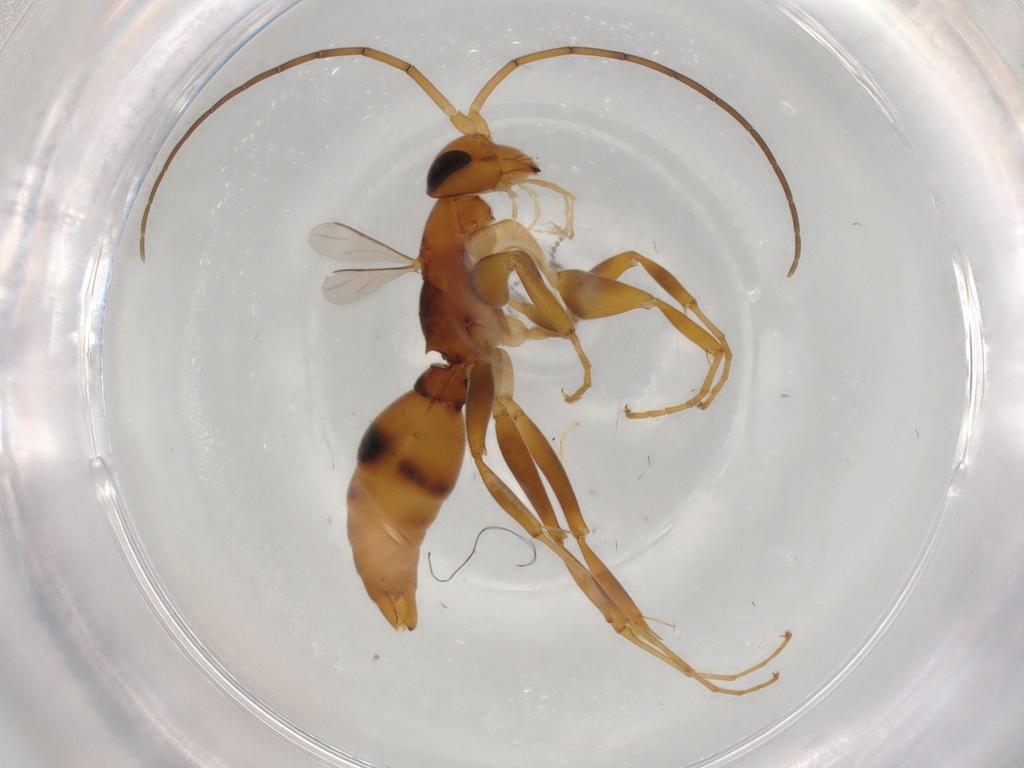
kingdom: Animalia
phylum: Arthropoda
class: Insecta
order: Hymenoptera
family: Rhopalosomatidae
